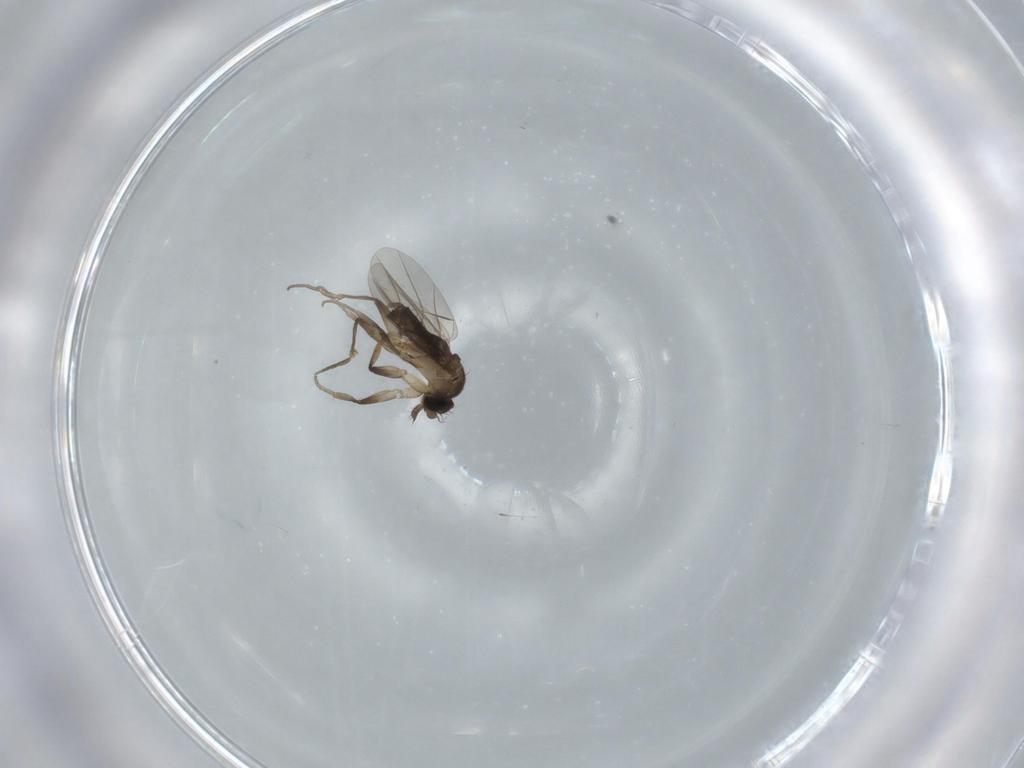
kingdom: Animalia
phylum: Arthropoda
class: Insecta
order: Diptera
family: Phoridae
